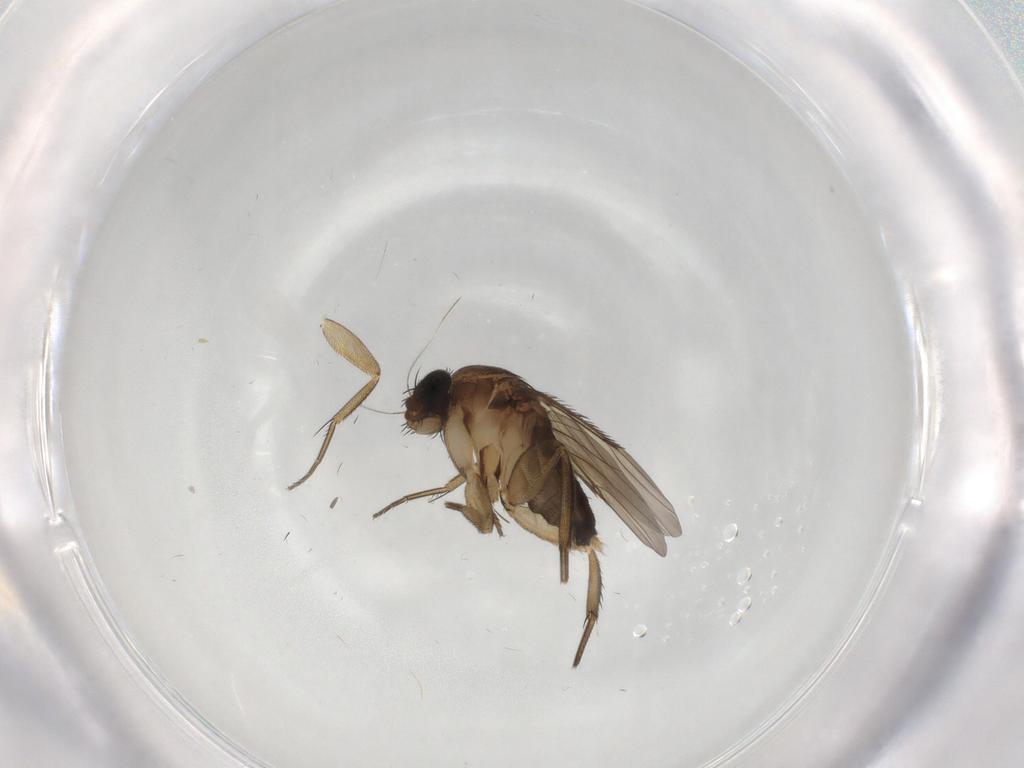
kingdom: Animalia
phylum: Arthropoda
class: Insecta
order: Diptera
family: Phoridae
